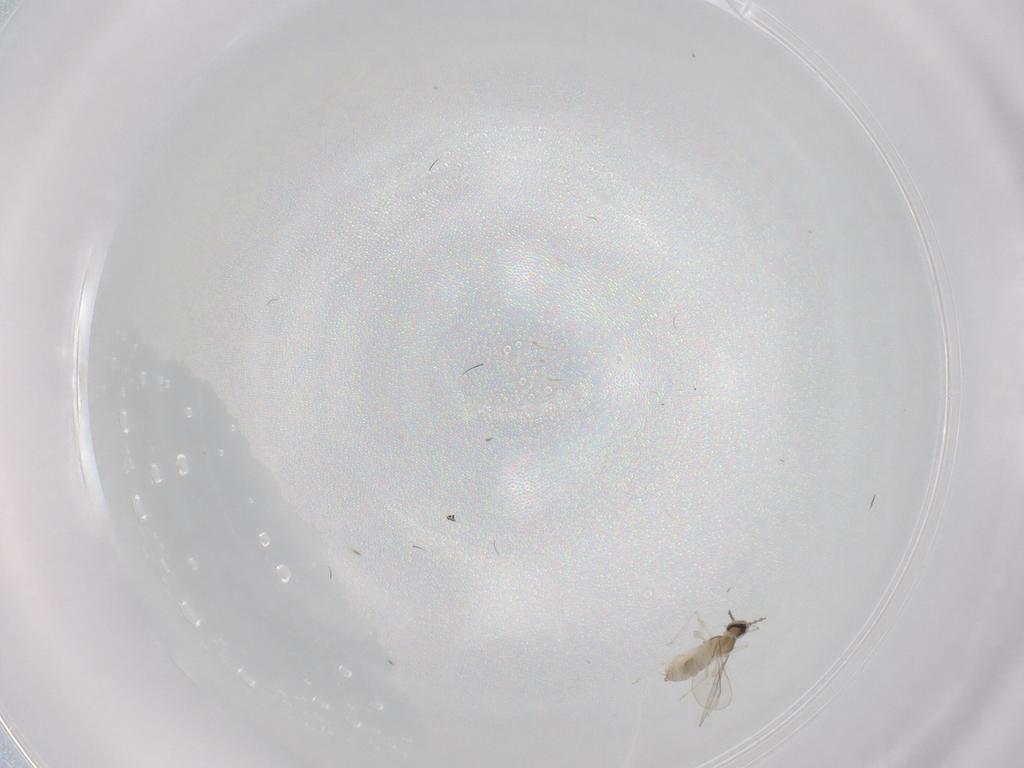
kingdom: Animalia
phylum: Arthropoda
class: Insecta
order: Diptera
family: Cecidomyiidae
